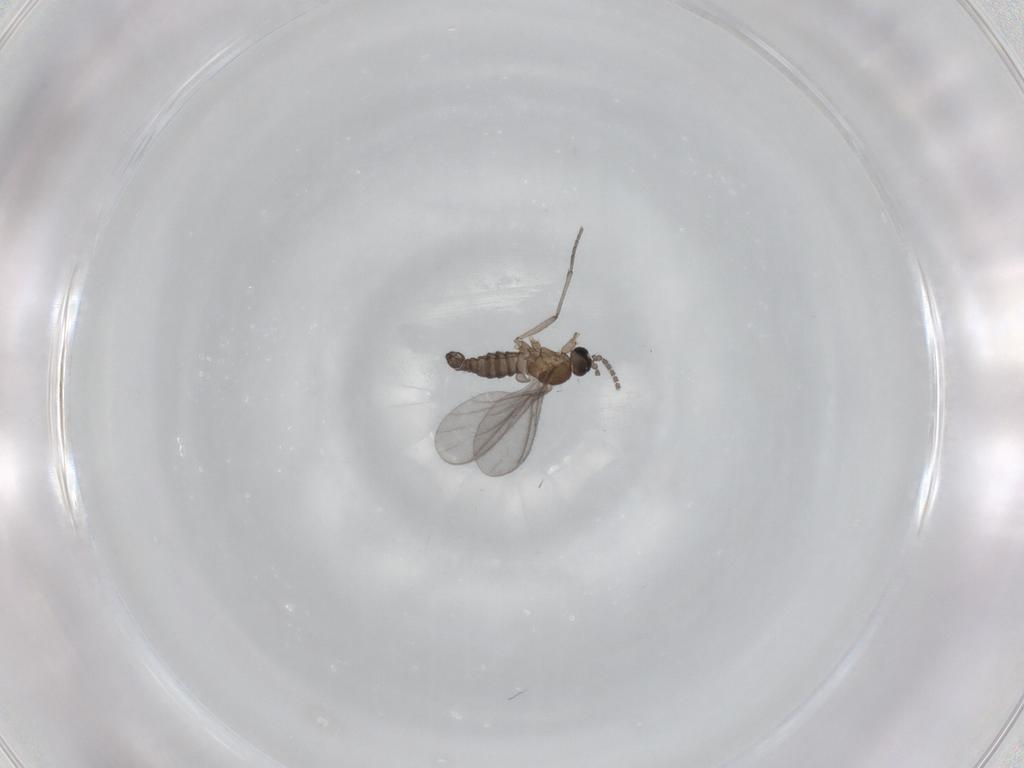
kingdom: Animalia
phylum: Arthropoda
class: Insecta
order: Diptera
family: Sciaridae
